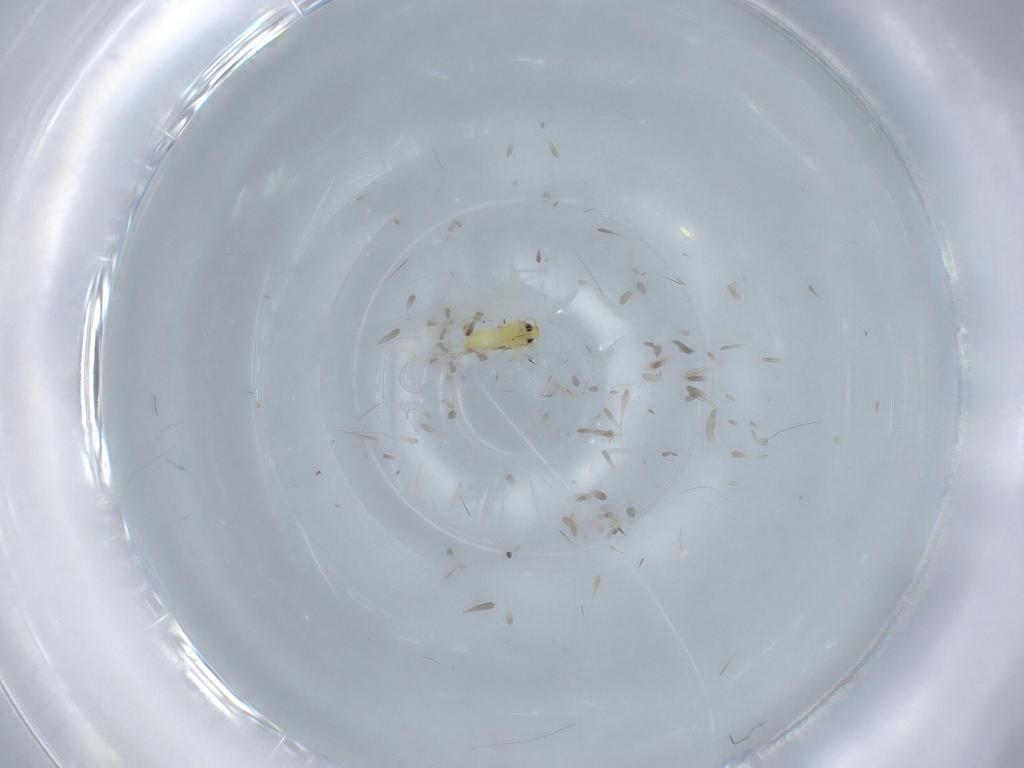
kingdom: Animalia
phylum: Arthropoda
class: Insecta
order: Hemiptera
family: Aleyrodidae
